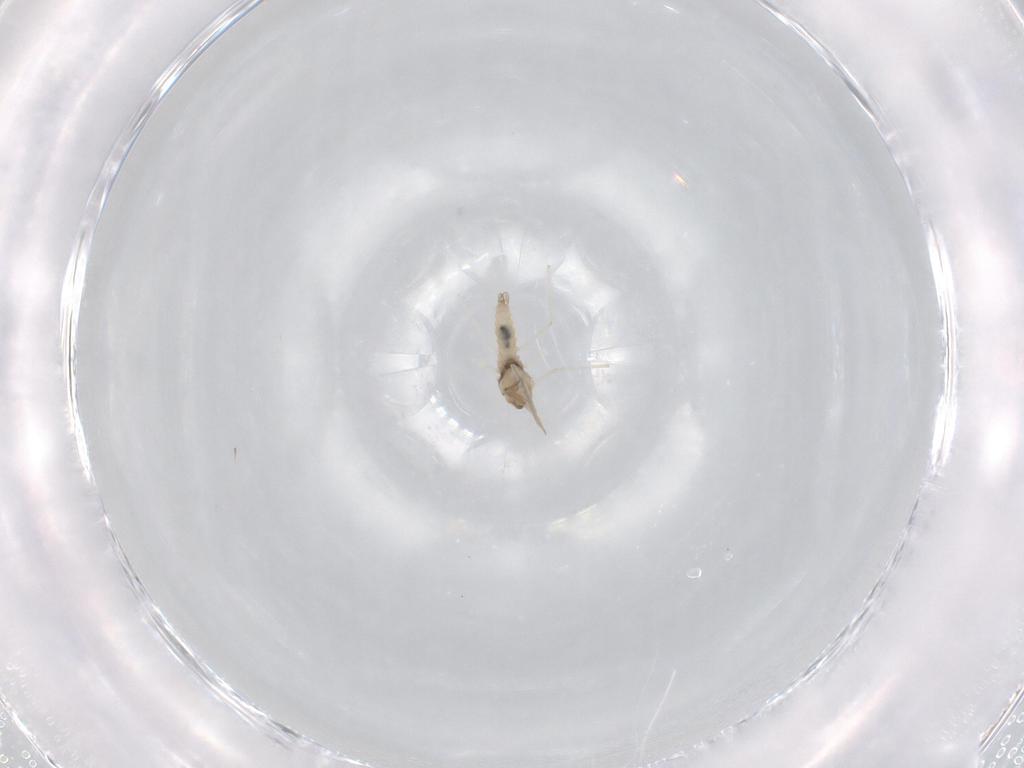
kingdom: Animalia
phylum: Arthropoda
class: Insecta
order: Diptera
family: Cecidomyiidae
